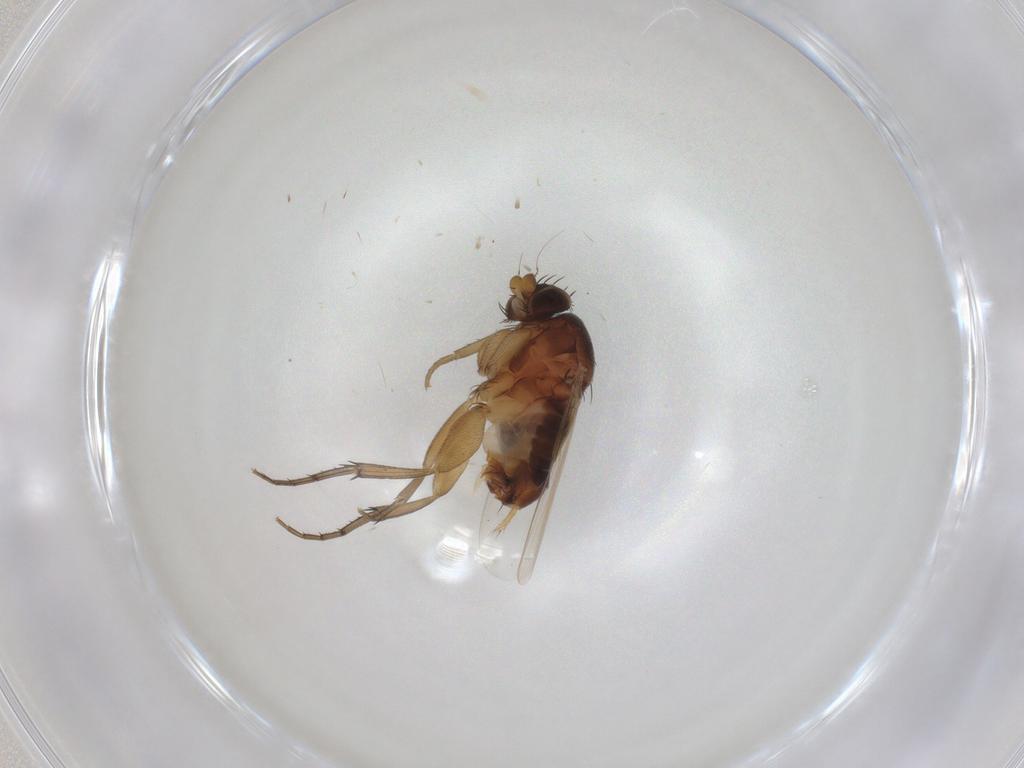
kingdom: Animalia
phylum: Arthropoda
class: Insecta
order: Diptera
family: Phoridae
